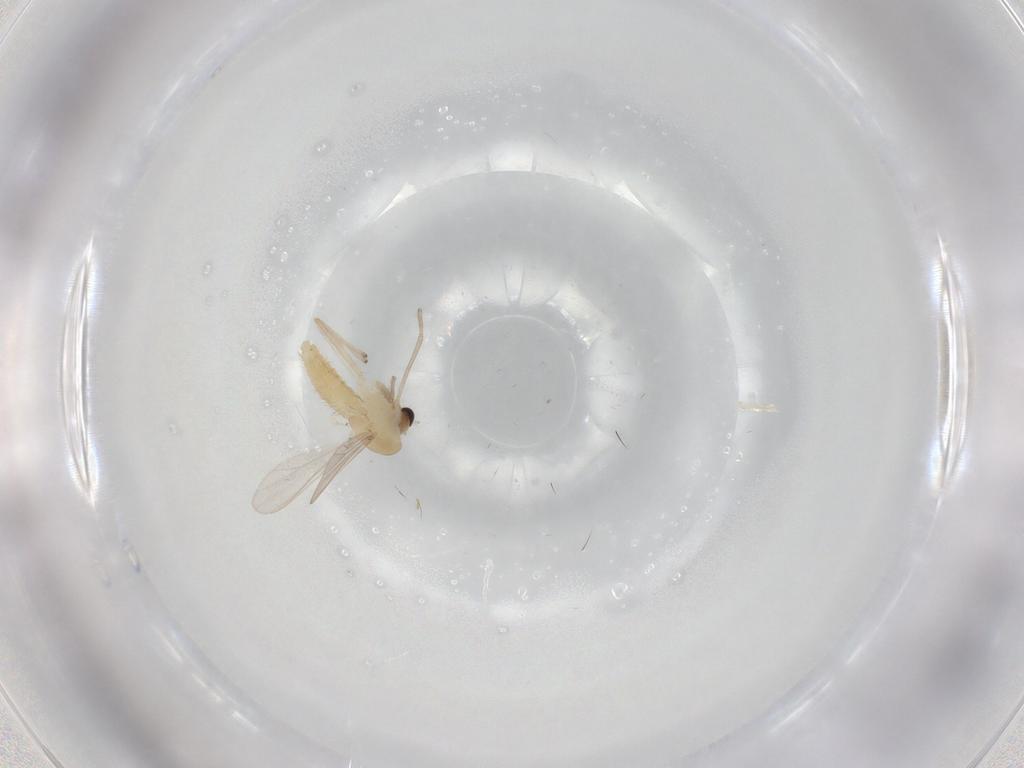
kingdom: Animalia
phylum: Arthropoda
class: Insecta
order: Diptera
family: Chironomidae
